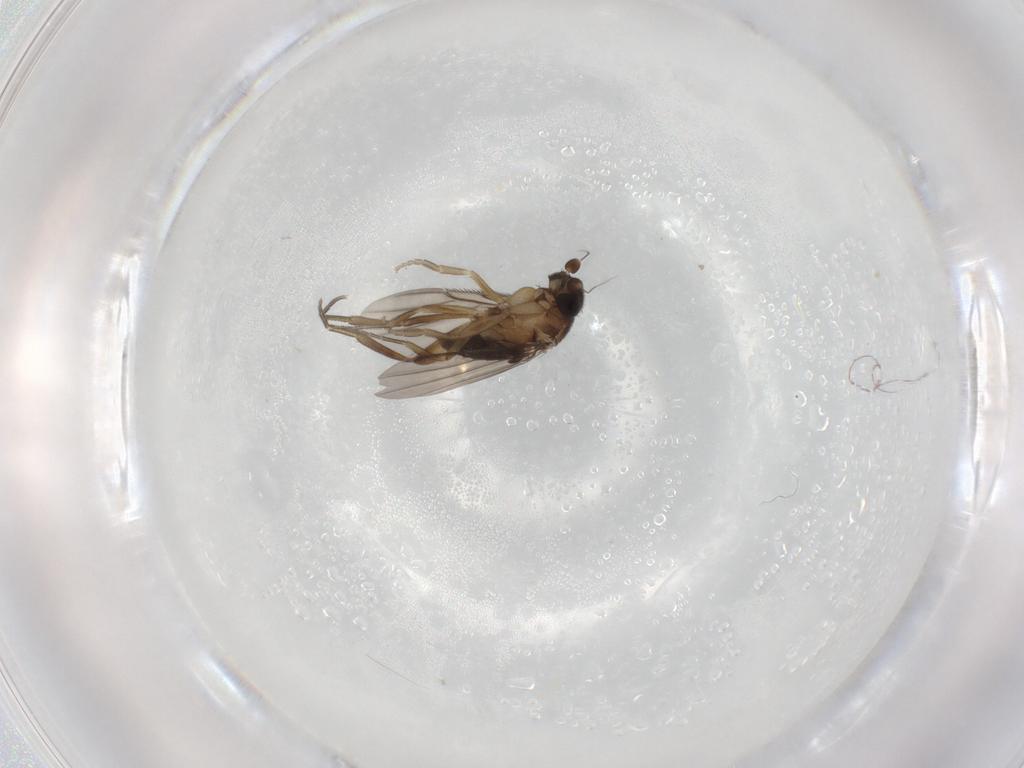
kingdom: Animalia
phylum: Arthropoda
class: Insecta
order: Diptera
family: Phoridae
